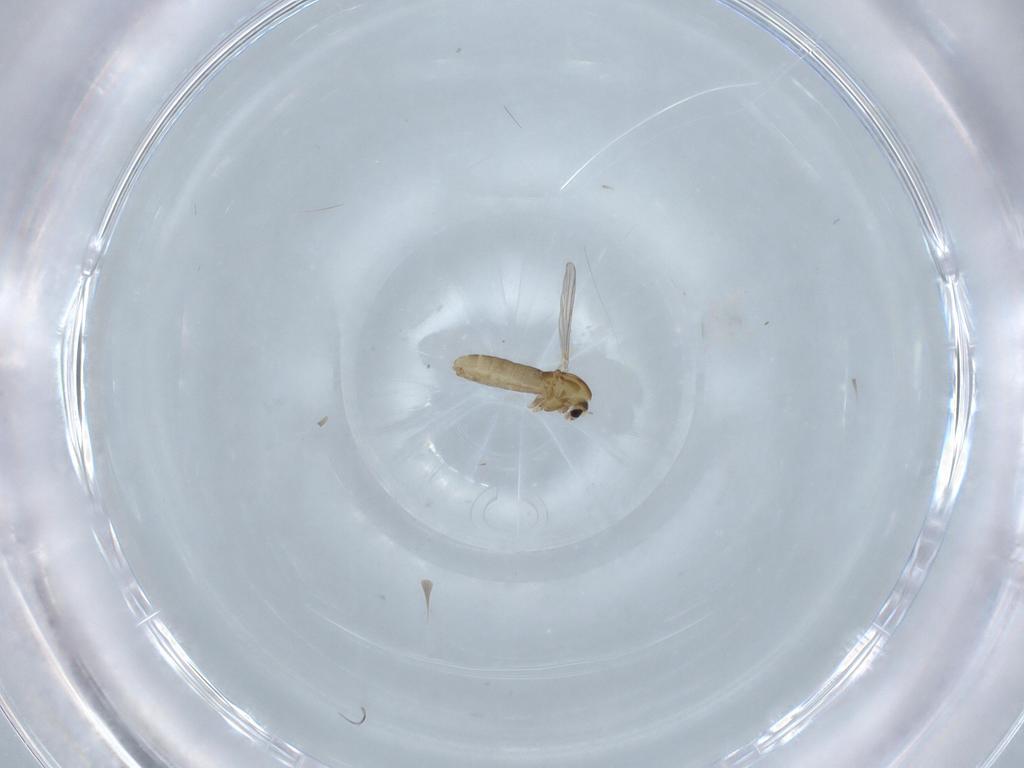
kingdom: Animalia
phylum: Arthropoda
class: Insecta
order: Diptera
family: Chironomidae
